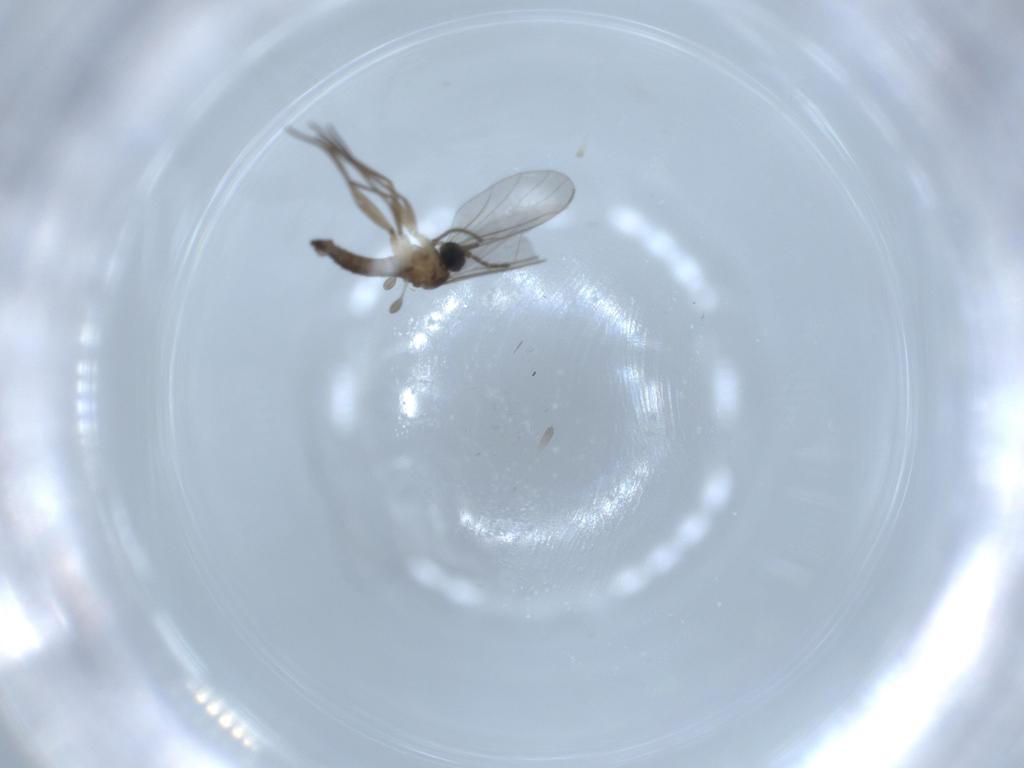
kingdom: Animalia
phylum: Arthropoda
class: Insecta
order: Diptera
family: Sciaridae
